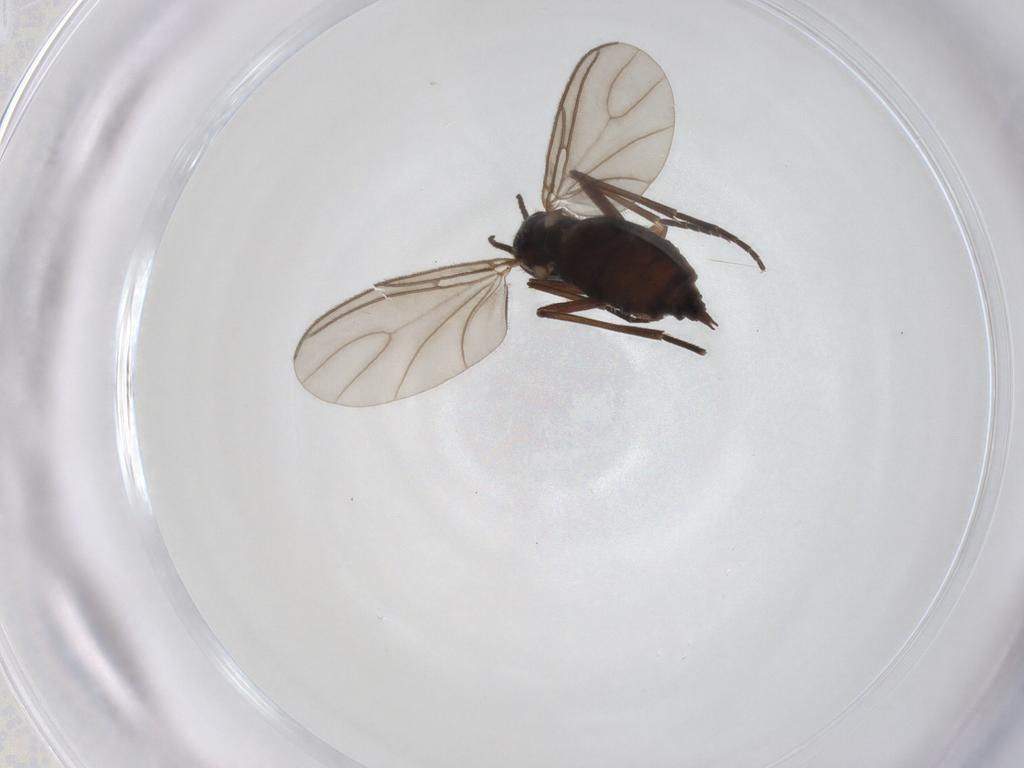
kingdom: Animalia
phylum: Arthropoda
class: Insecta
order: Diptera
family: Sciaridae
